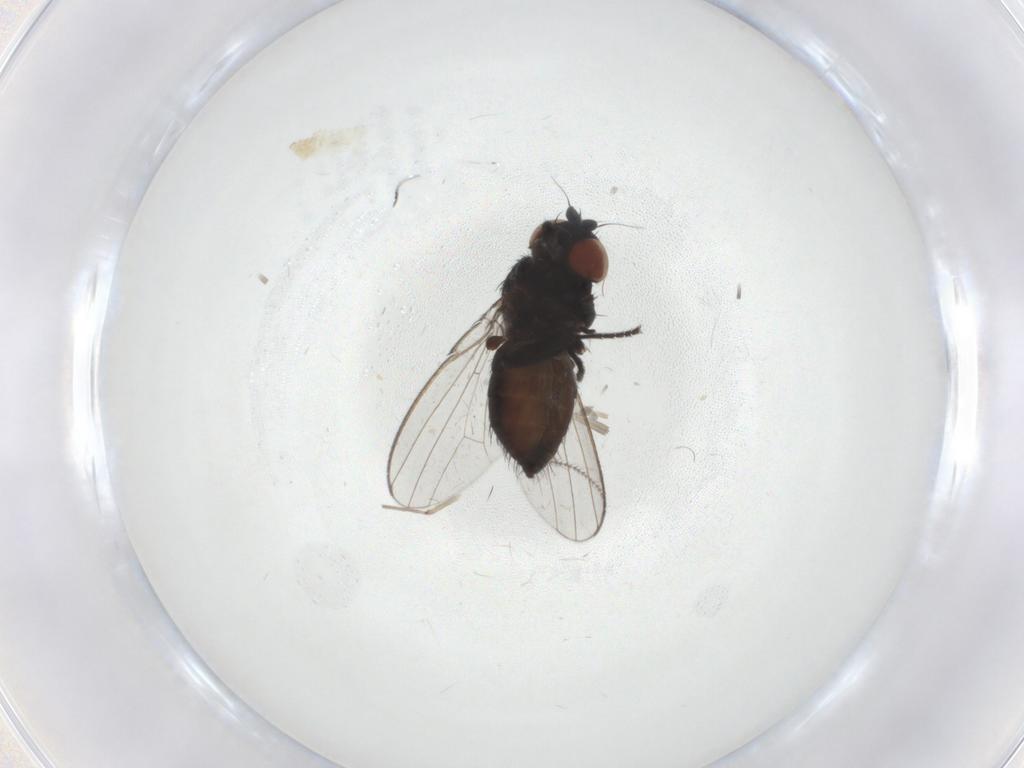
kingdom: Animalia
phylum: Arthropoda
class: Insecta
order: Diptera
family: Milichiidae
